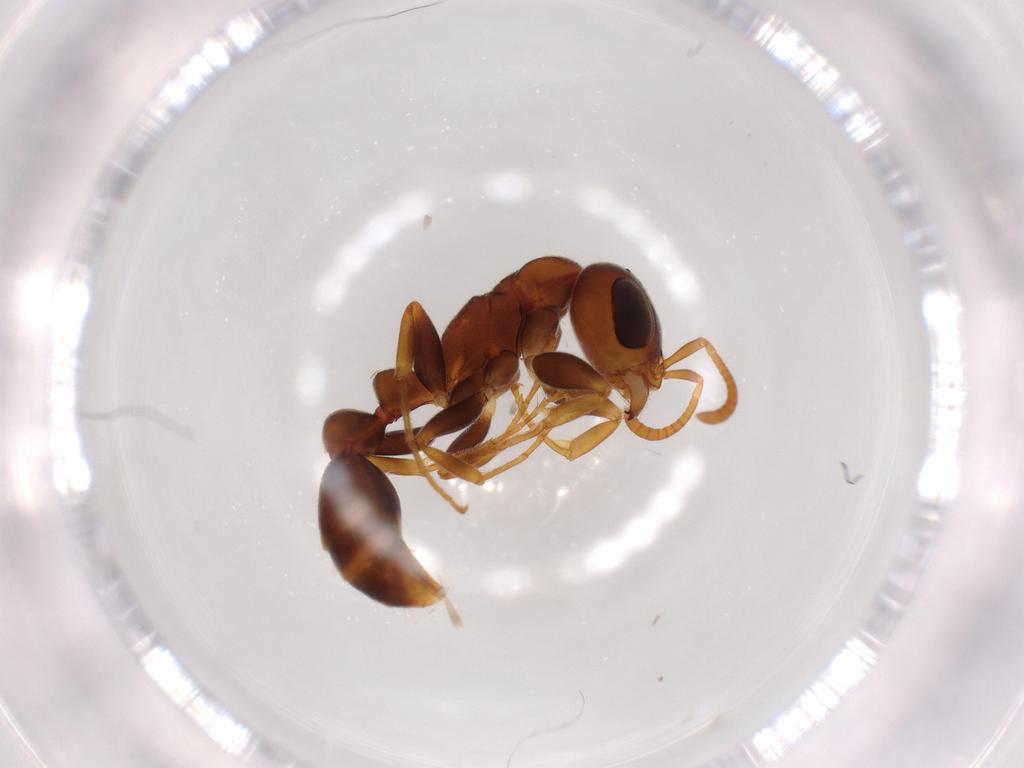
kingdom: Animalia
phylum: Arthropoda
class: Insecta
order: Hymenoptera
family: Formicidae
